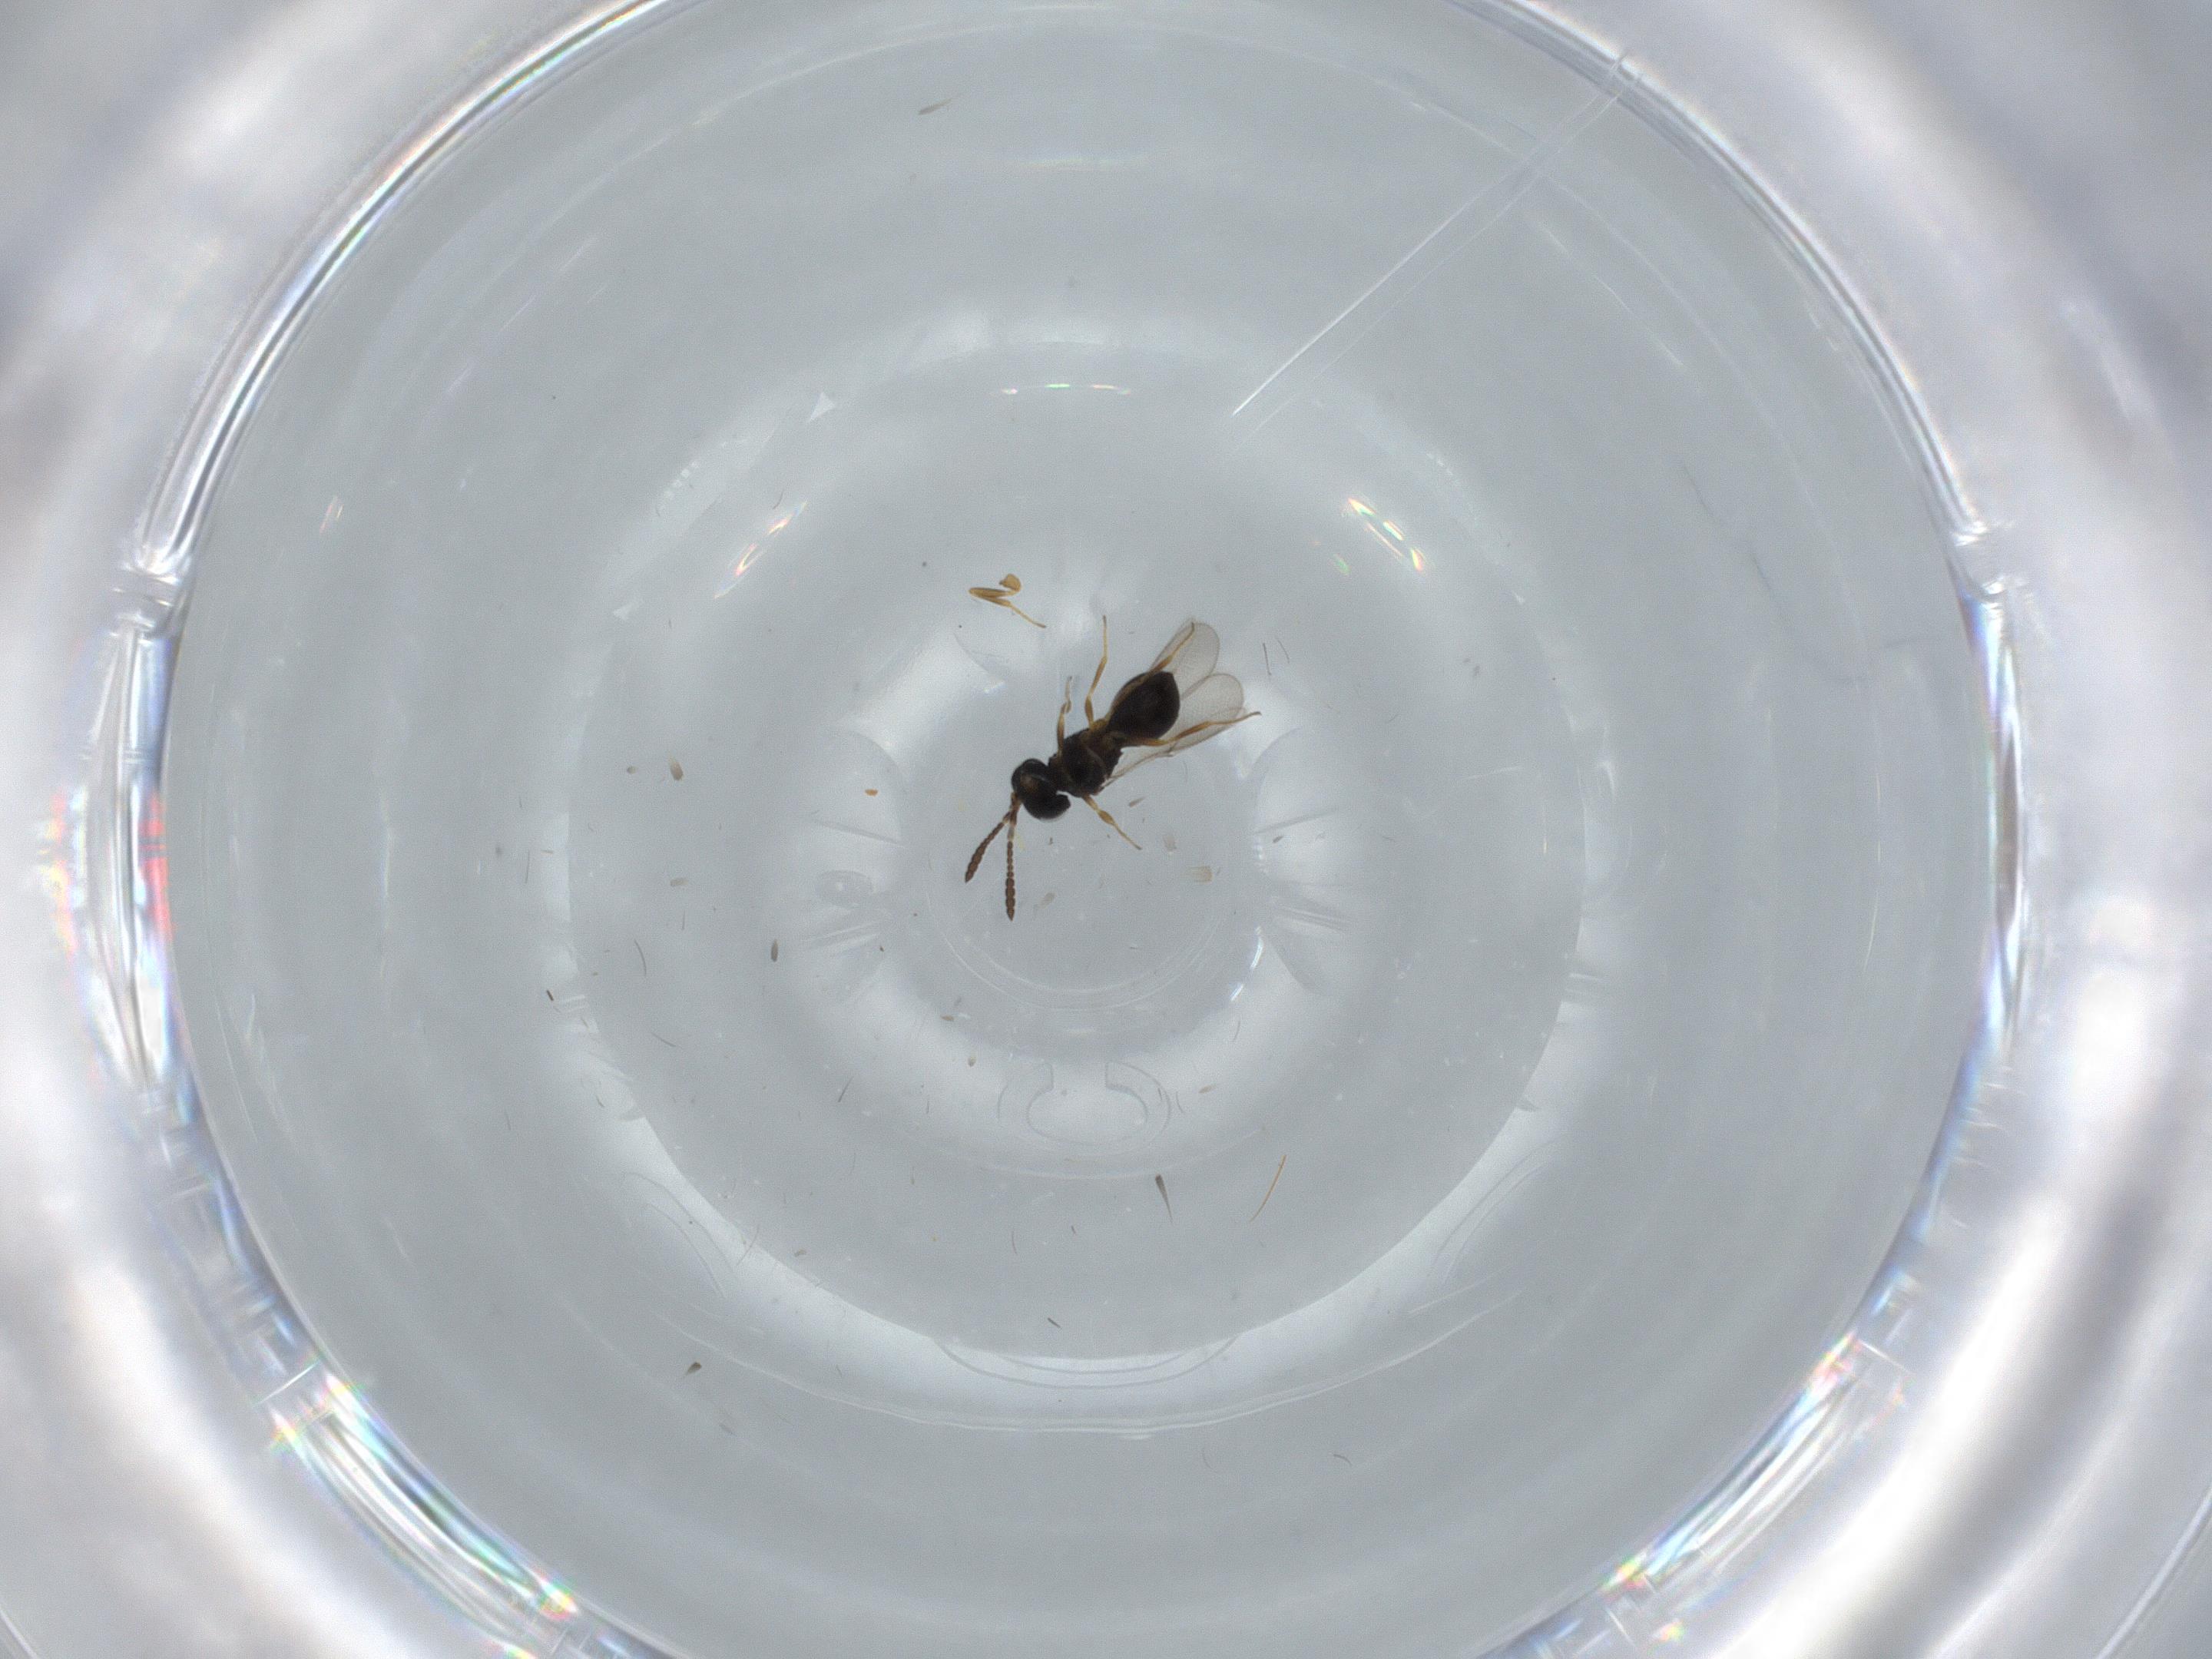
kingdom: Animalia
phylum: Arthropoda
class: Insecta
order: Hymenoptera
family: Scelionidae
